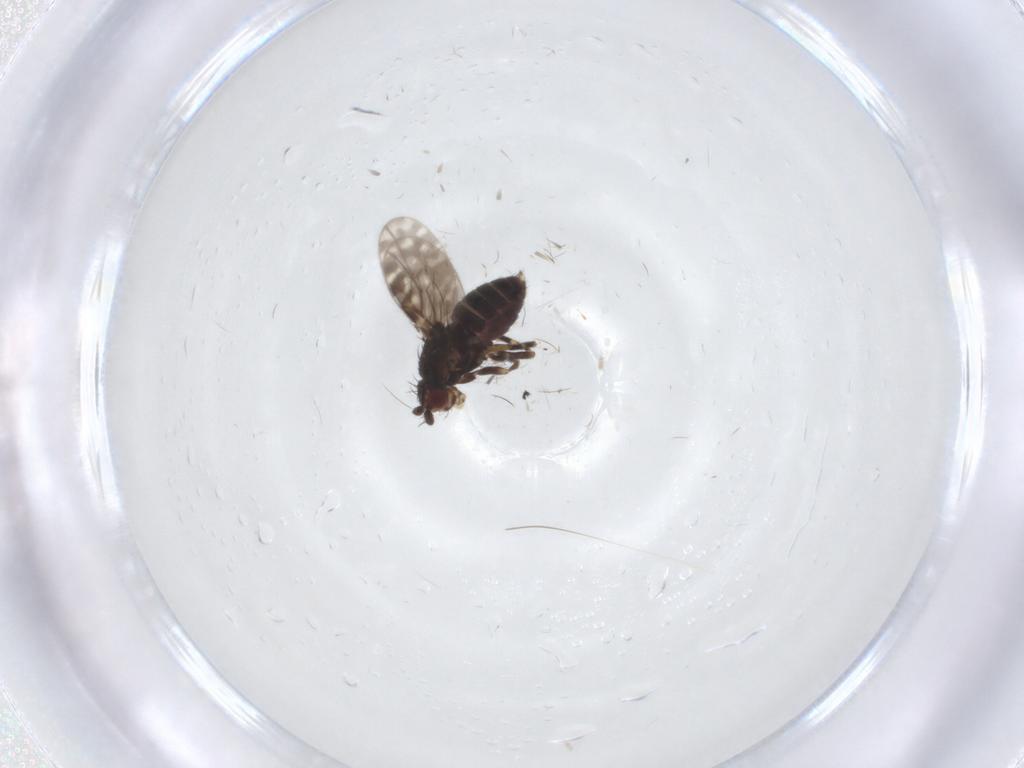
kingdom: Animalia
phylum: Arthropoda
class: Insecta
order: Diptera
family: Sphaeroceridae
